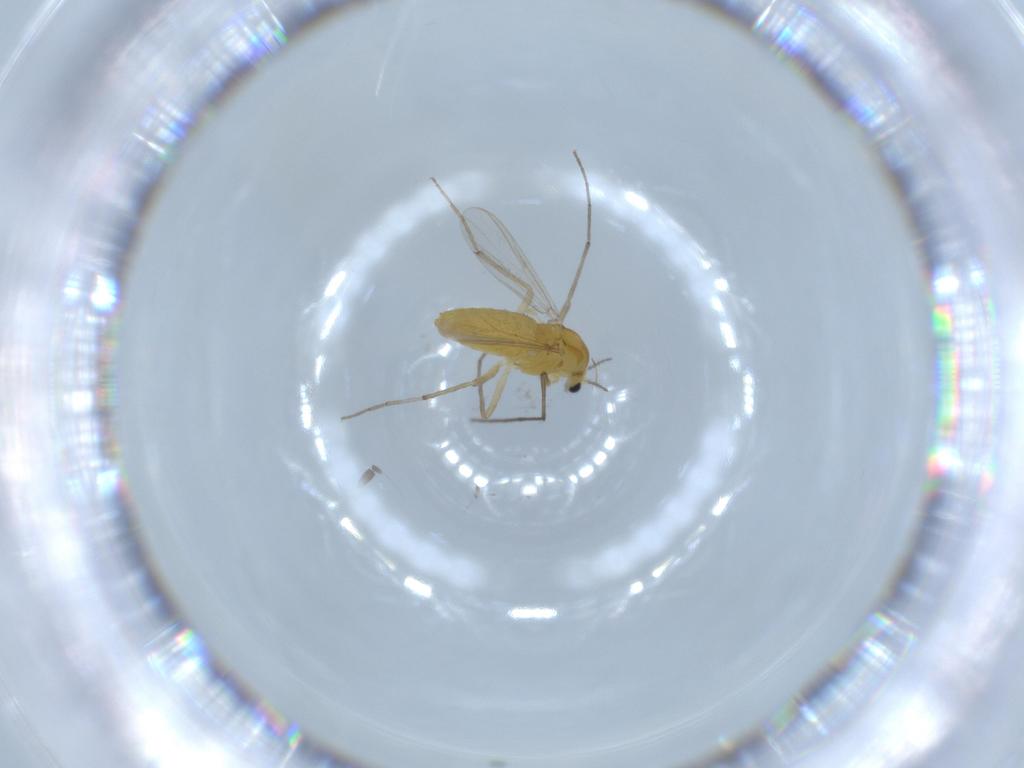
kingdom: Animalia
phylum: Arthropoda
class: Insecta
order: Diptera
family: Chironomidae
